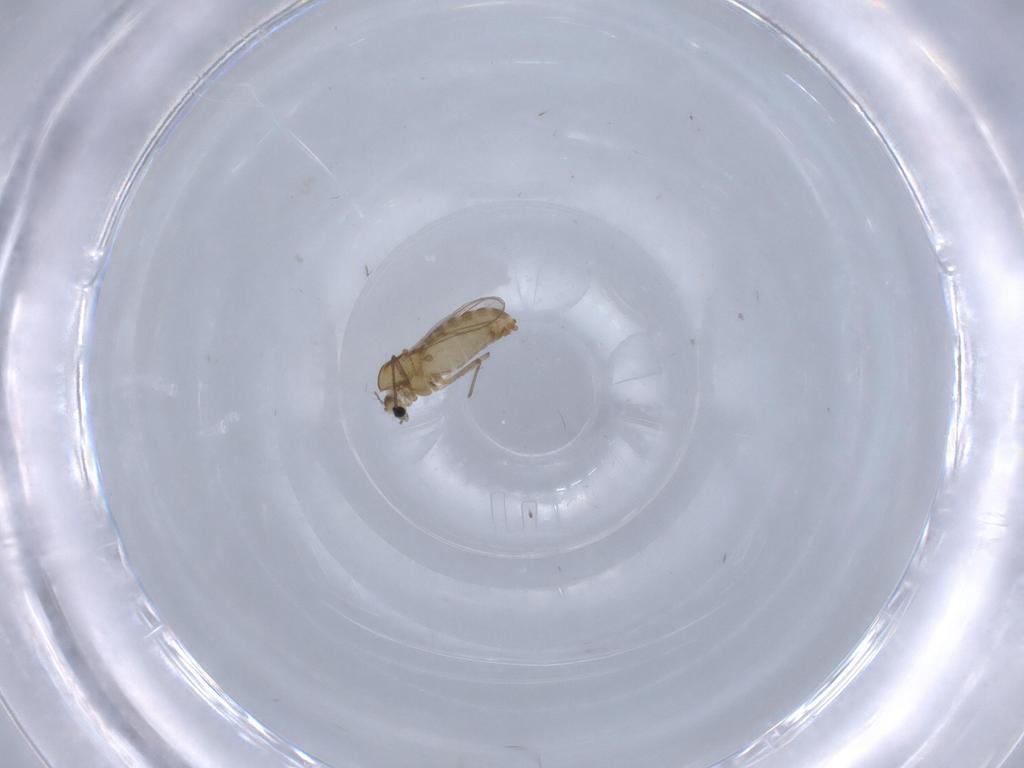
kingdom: Animalia
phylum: Arthropoda
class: Insecta
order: Diptera
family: Chironomidae
